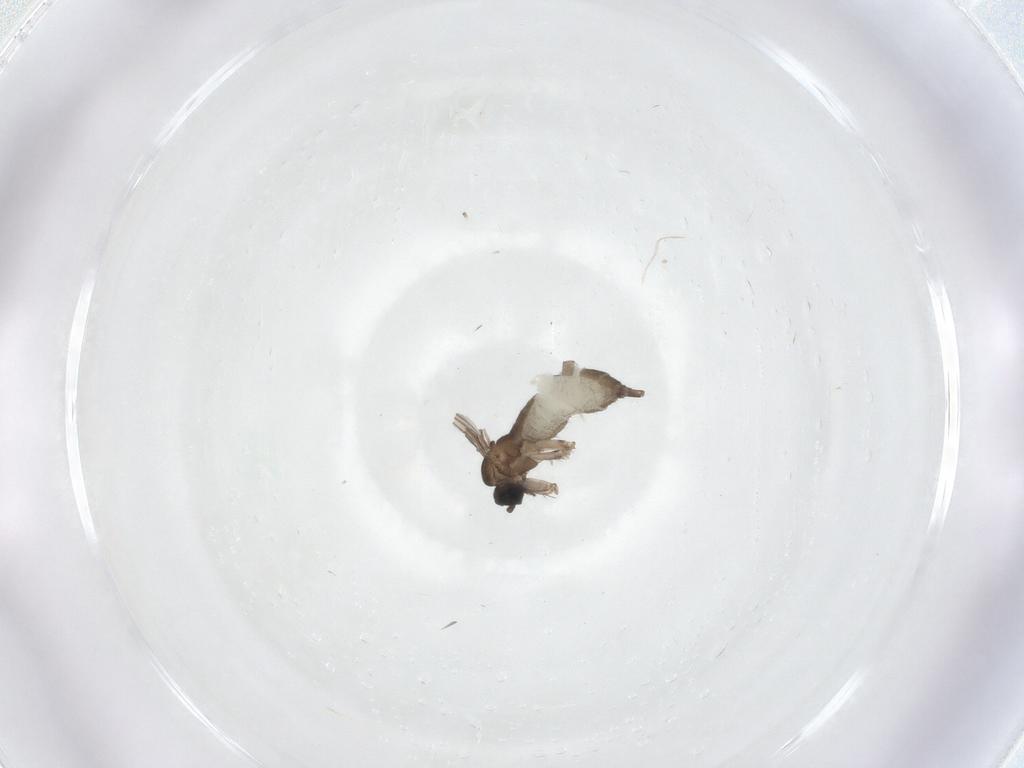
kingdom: Animalia
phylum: Arthropoda
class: Insecta
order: Diptera
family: Sciaridae
